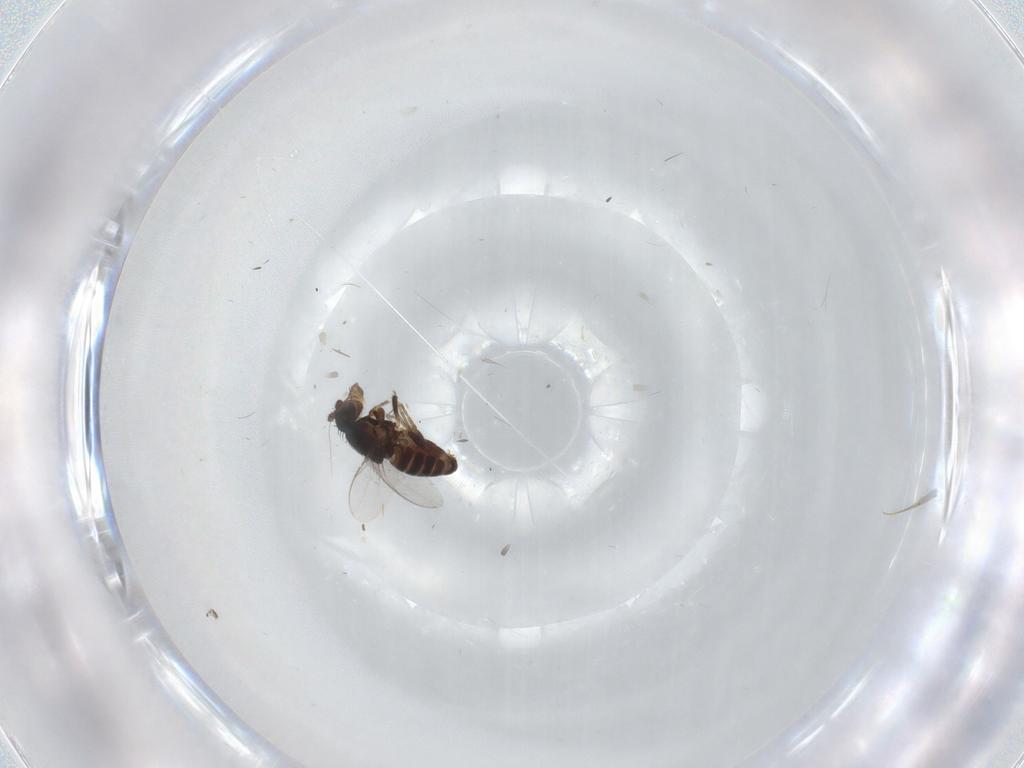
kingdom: Animalia
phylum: Arthropoda
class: Insecta
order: Diptera
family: Sphaeroceridae
